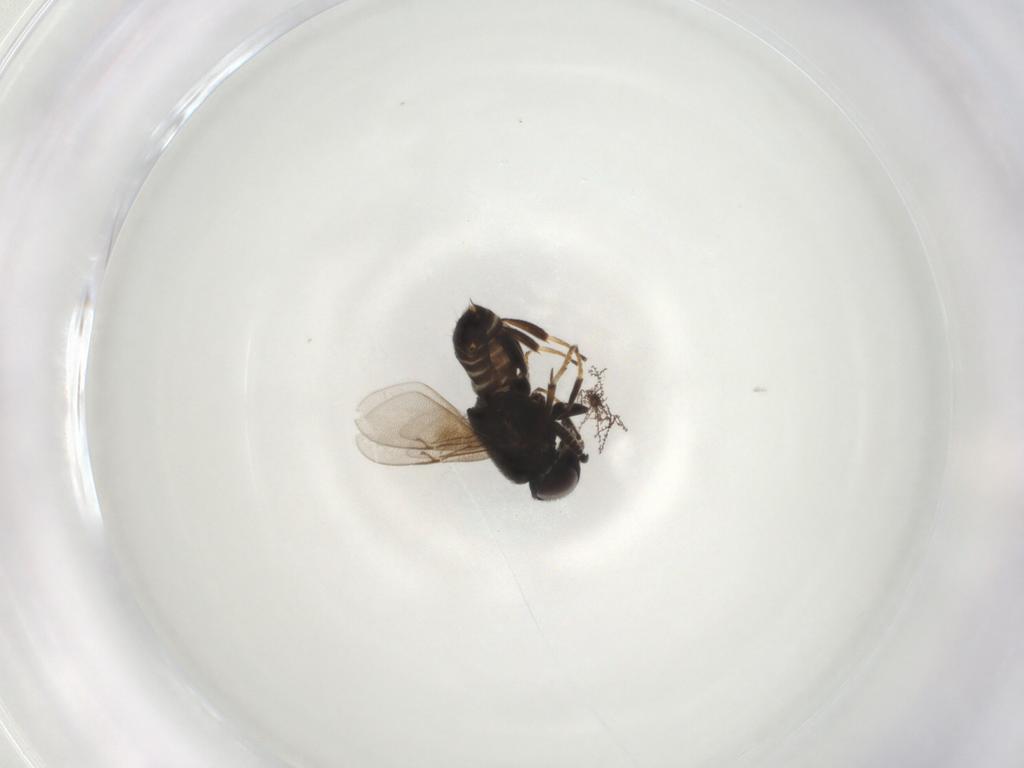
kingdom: Animalia
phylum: Arthropoda
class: Insecta
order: Hymenoptera
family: Encyrtidae
